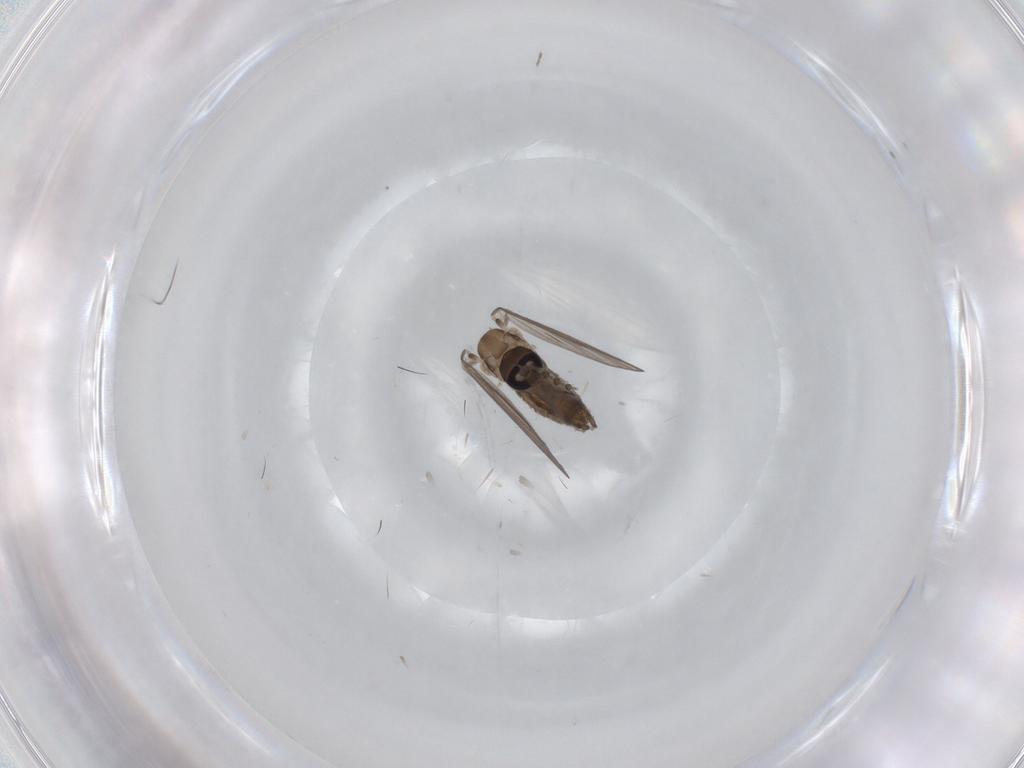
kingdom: Animalia
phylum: Arthropoda
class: Insecta
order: Diptera
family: Psychodidae
